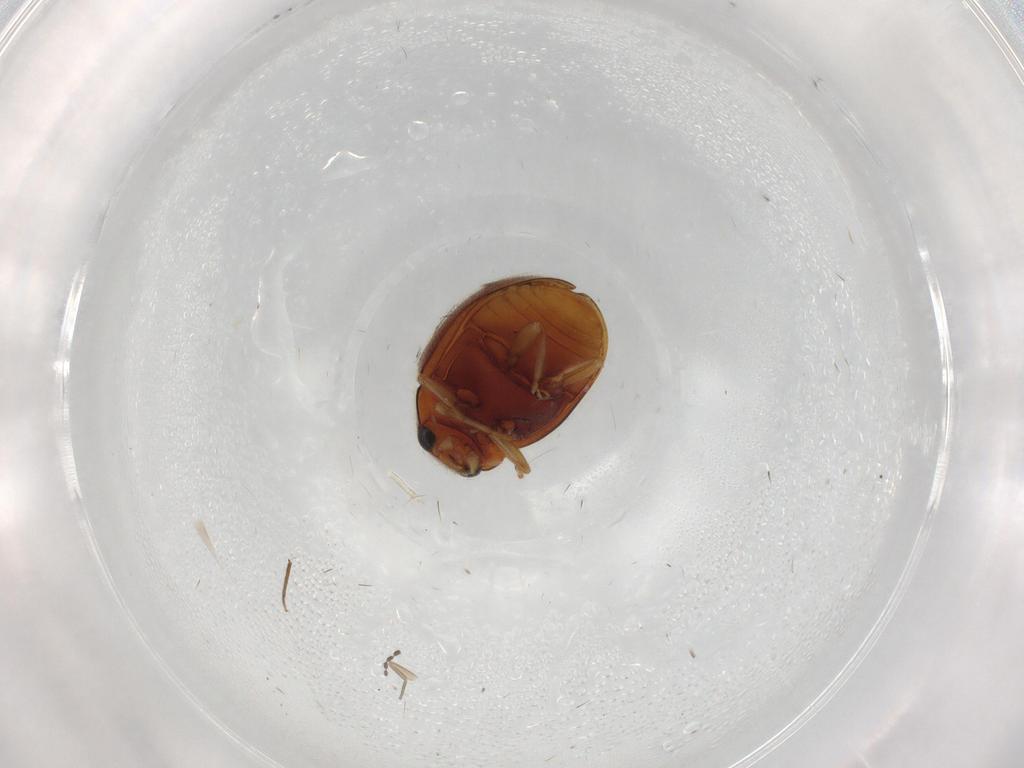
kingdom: Animalia
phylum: Arthropoda
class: Insecta
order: Coleoptera
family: Coccinellidae
